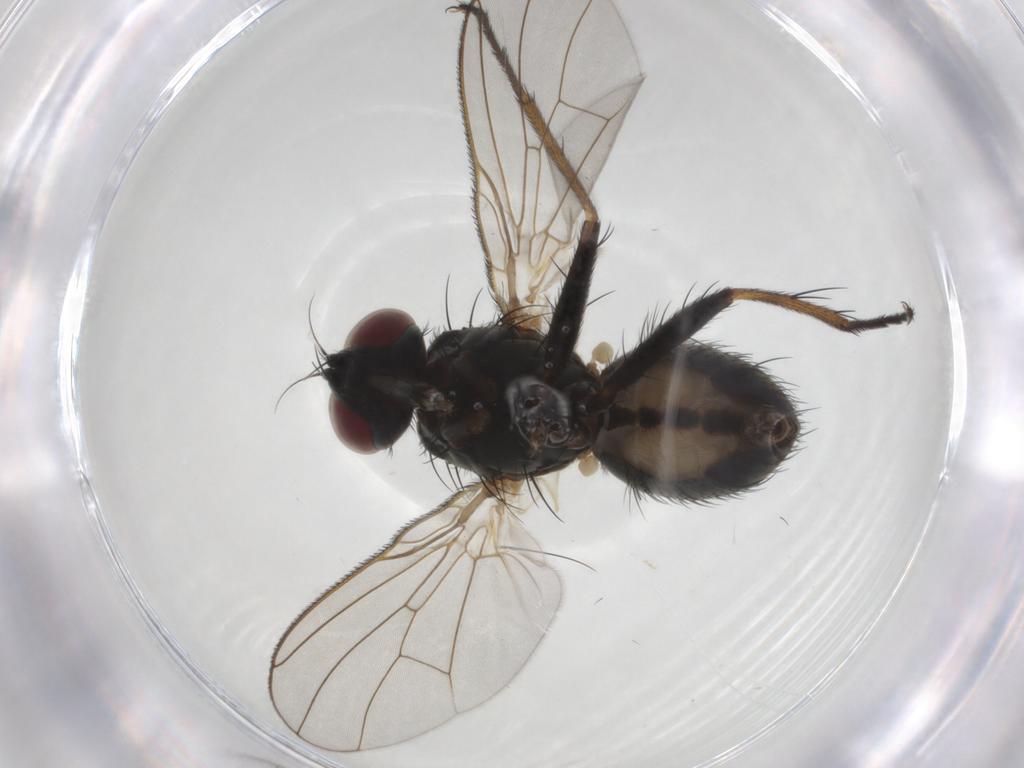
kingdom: Animalia
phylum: Arthropoda
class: Insecta
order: Diptera
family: Muscidae
